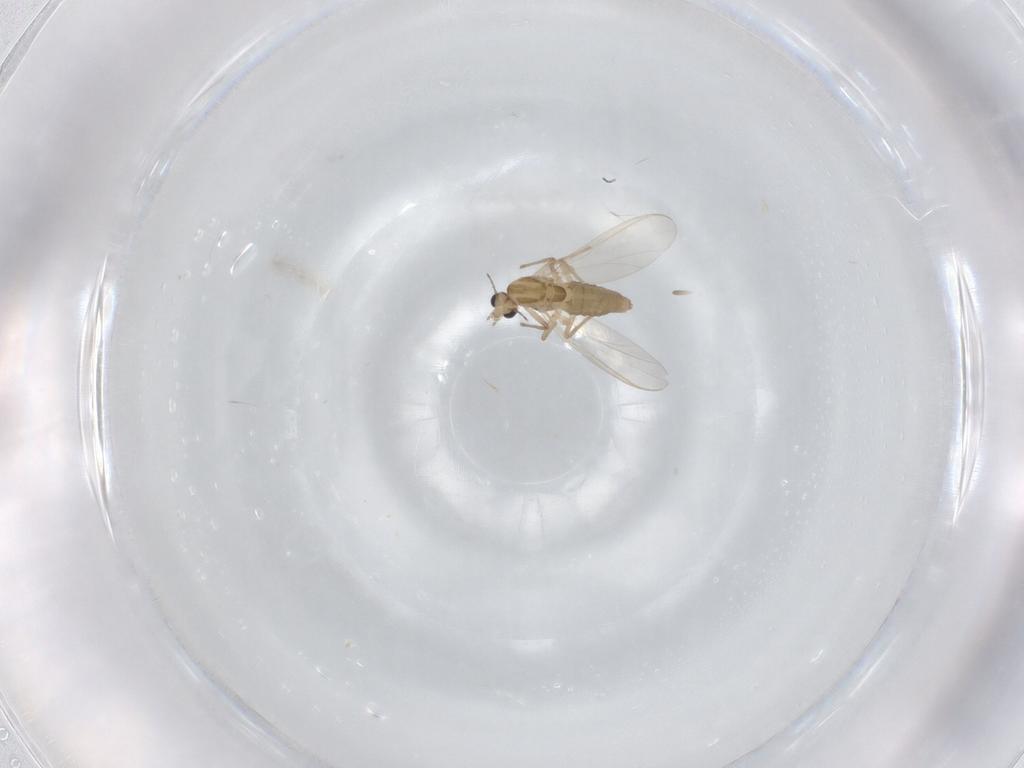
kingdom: Animalia
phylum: Arthropoda
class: Insecta
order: Diptera
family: Chironomidae
